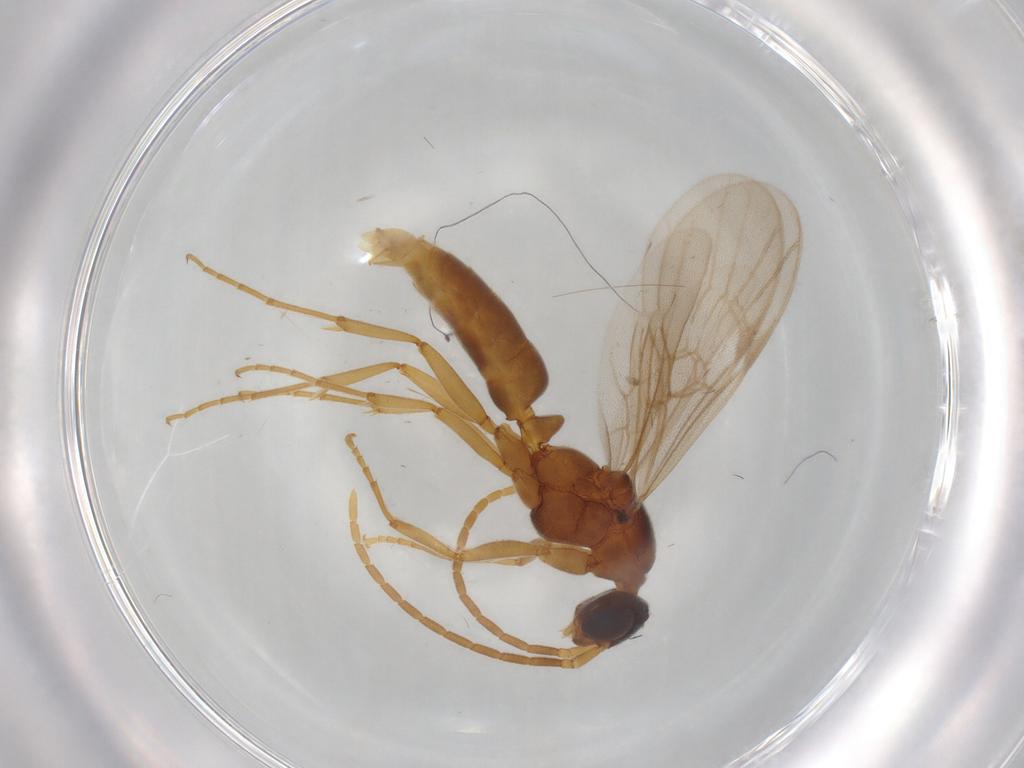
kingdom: Animalia
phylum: Arthropoda
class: Insecta
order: Hymenoptera
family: Formicidae
